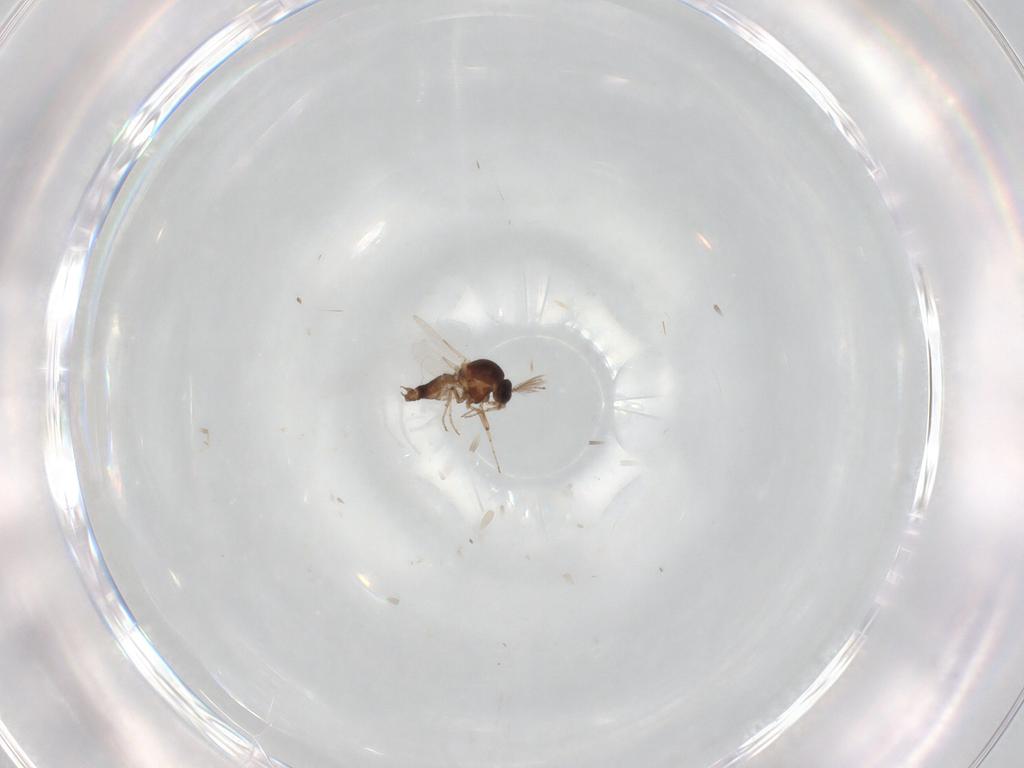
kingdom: Animalia
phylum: Arthropoda
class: Insecta
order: Diptera
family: Ceratopogonidae
